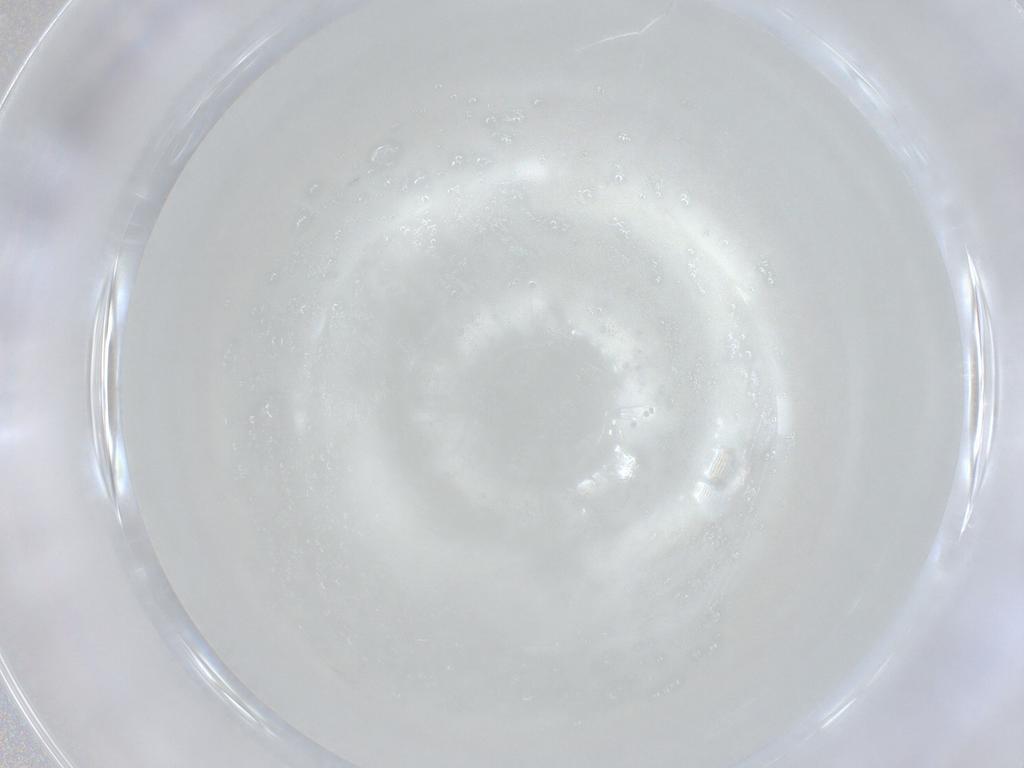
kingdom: Animalia
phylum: Arthropoda
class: Insecta
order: Thysanoptera
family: Phlaeothripidae
